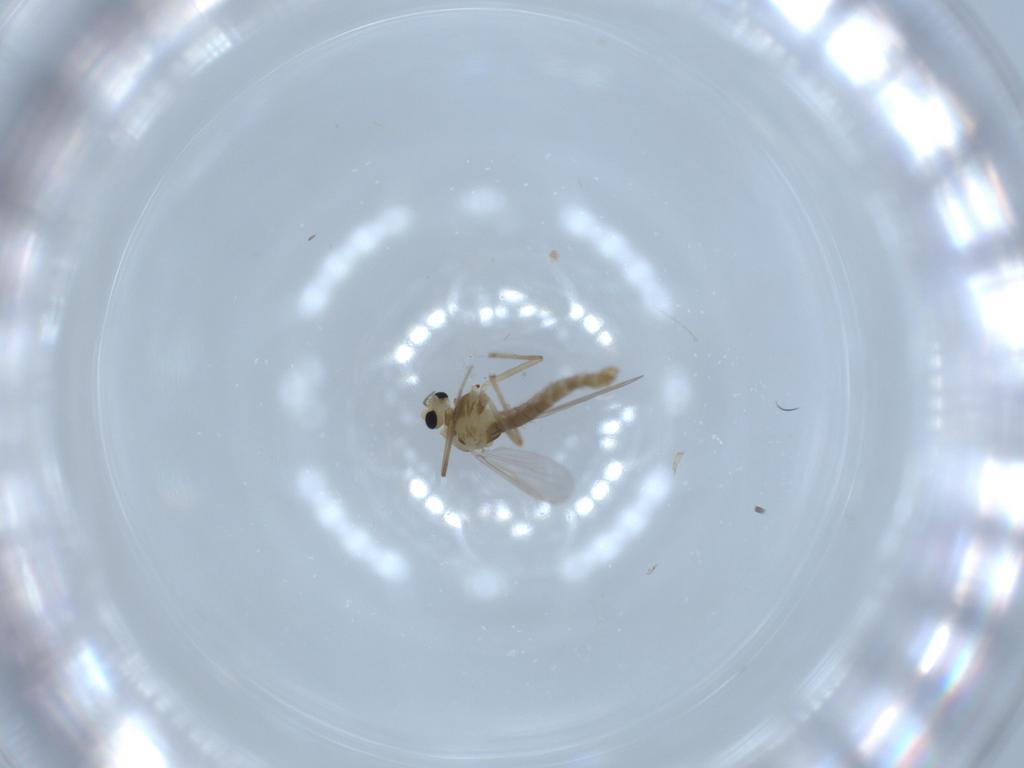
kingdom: Animalia
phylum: Arthropoda
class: Insecta
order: Diptera
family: Chironomidae
